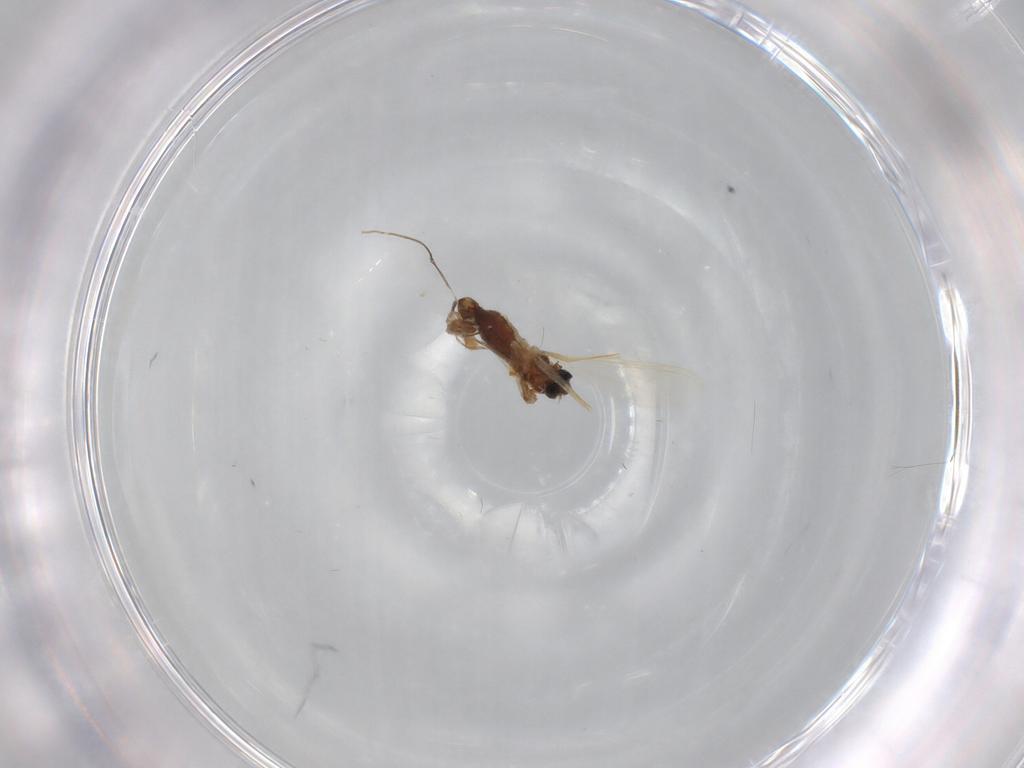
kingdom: Animalia
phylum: Arthropoda
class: Insecta
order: Diptera
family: Chironomidae
